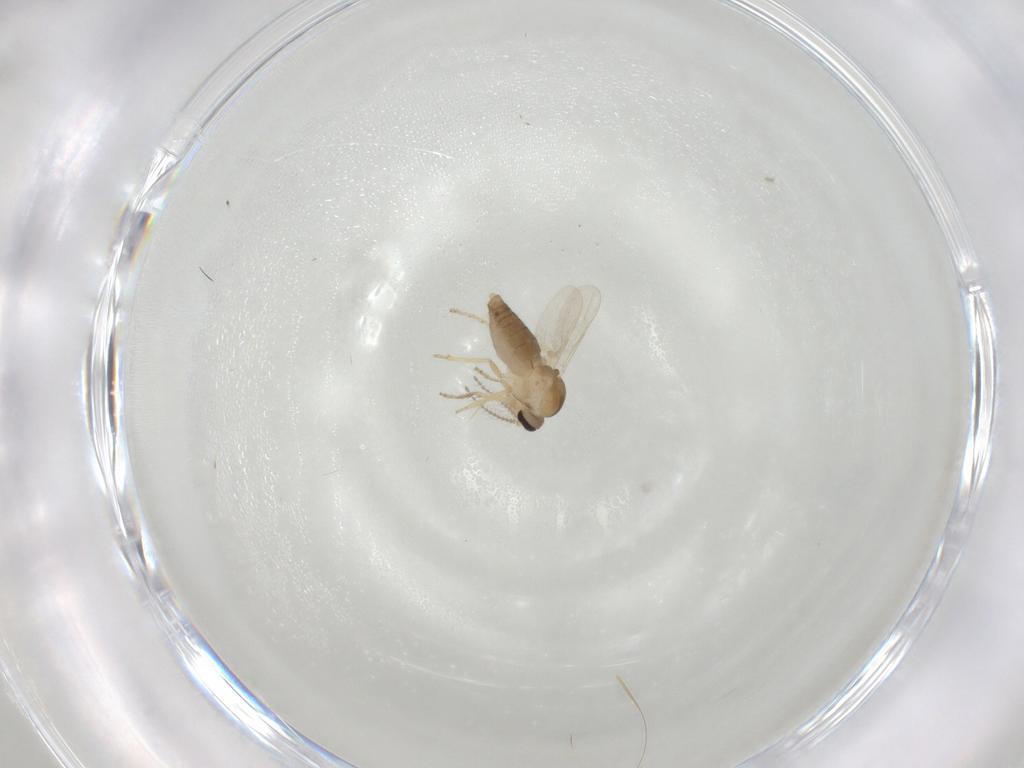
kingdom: Animalia
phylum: Arthropoda
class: Insecta
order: Diptera
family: Ceratopogonidae
